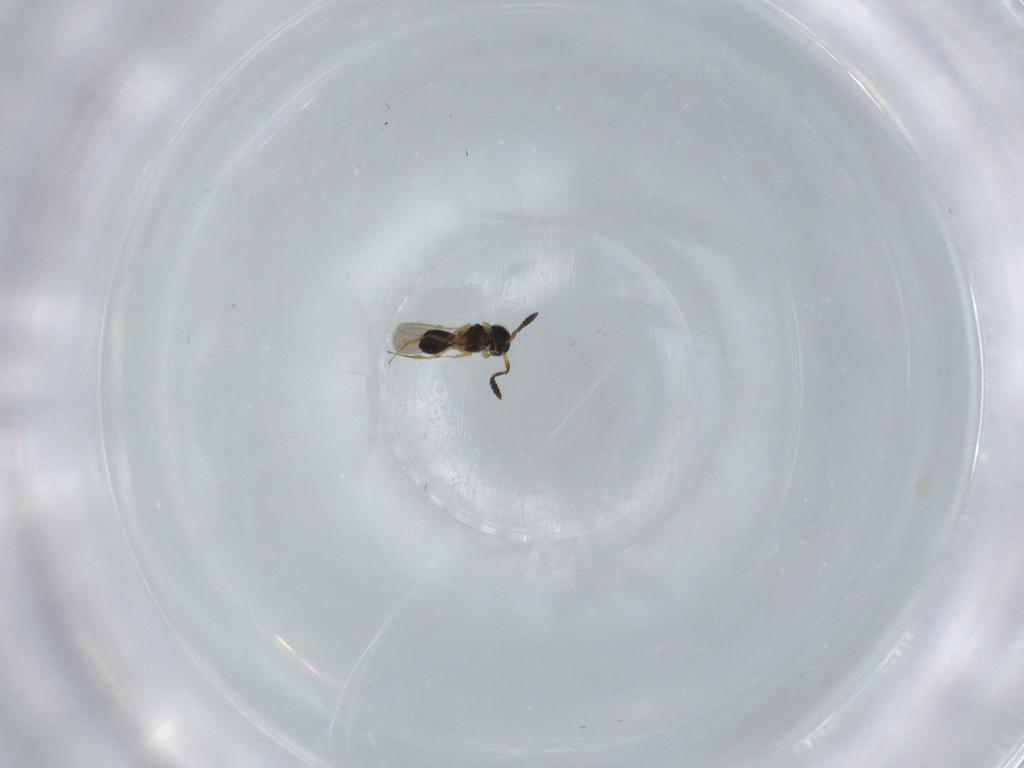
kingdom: Animalia
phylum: Arthropoda
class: Insecta
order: Hymenoptera
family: Scelionidae
